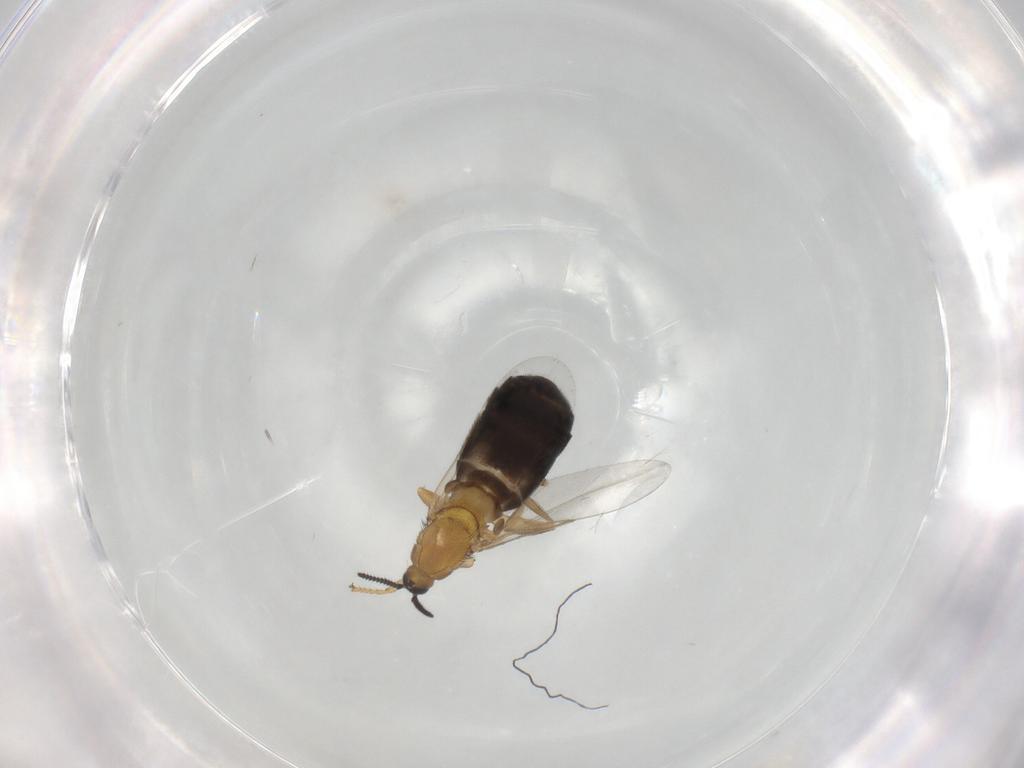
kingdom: Animalia
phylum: Arthropoda
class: Insecta
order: Diptera
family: Scatopsidae
